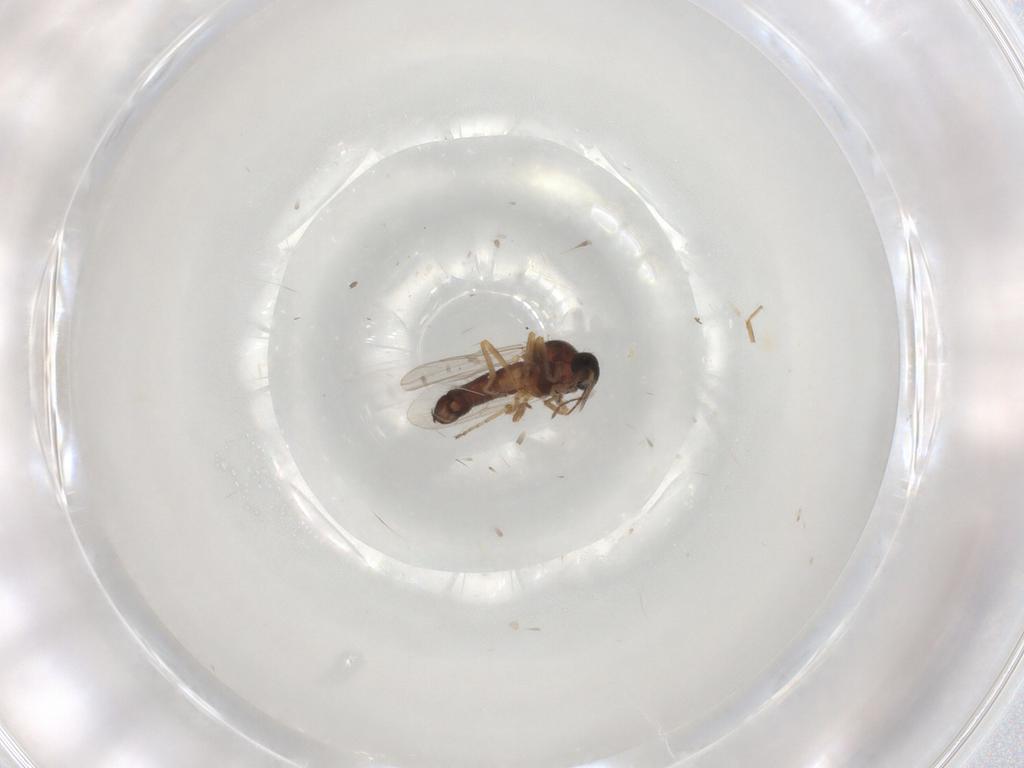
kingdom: Animalia
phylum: Arthropoda
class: Insecta
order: Diptera
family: Ceratopogonidae
